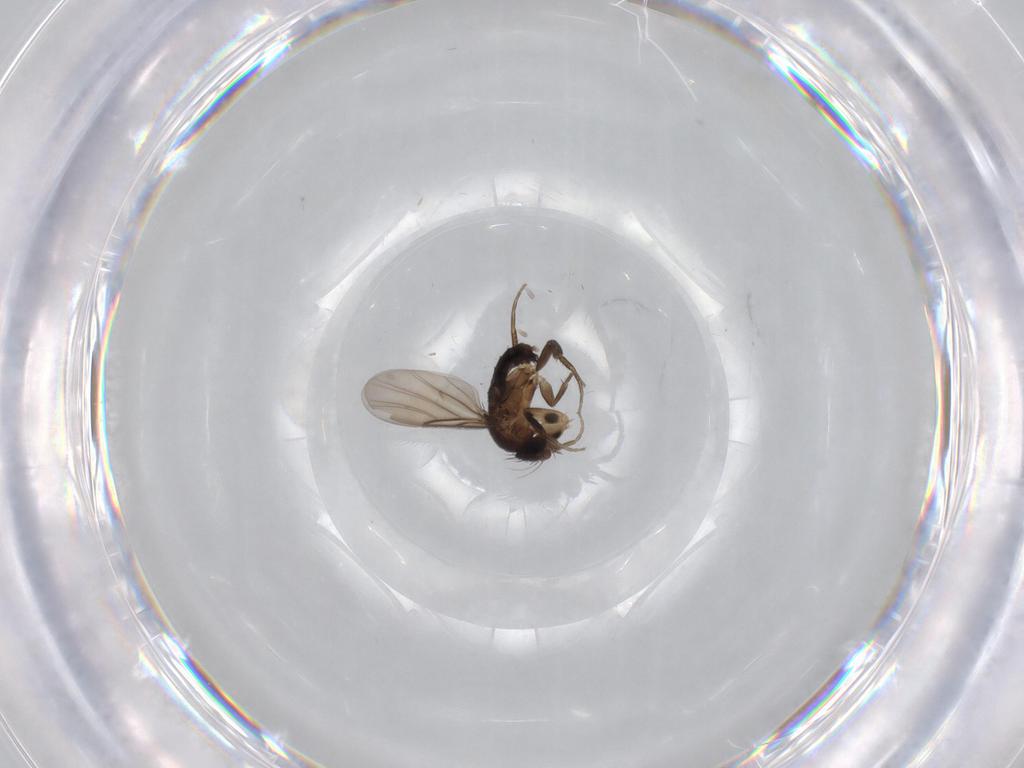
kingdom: Animalia
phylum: Arthropoda
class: Insecta
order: Diptera
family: Phoridae
